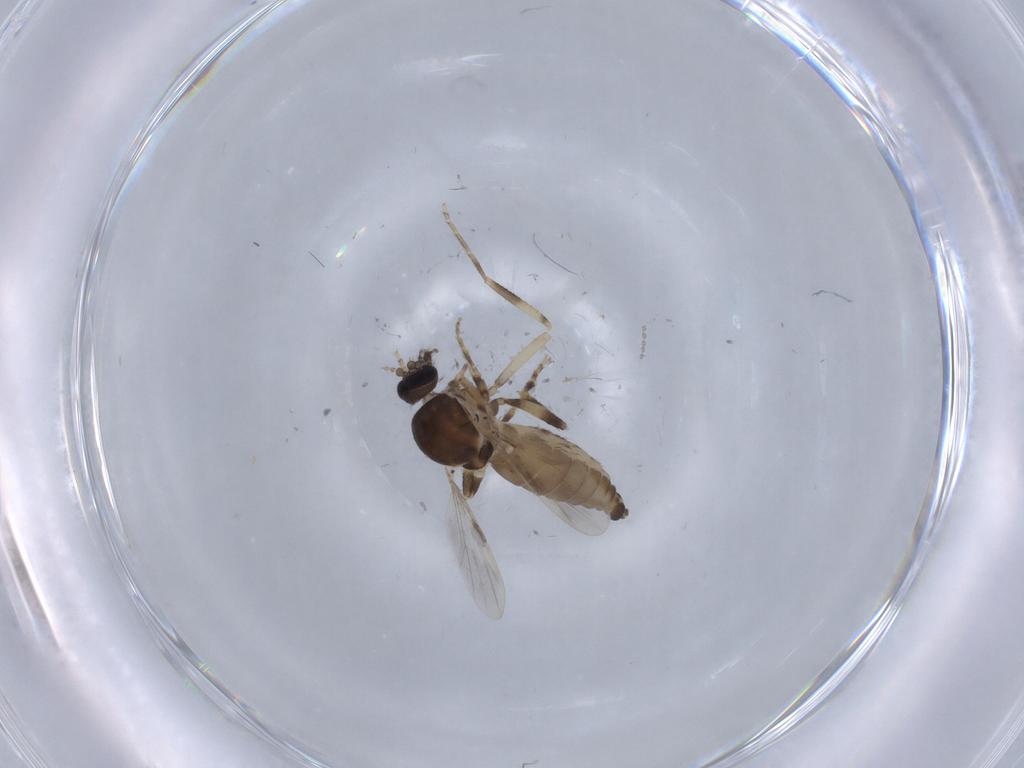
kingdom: Animalia
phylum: Arthropoda
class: Insecta
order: Diptera
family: Ceratopogonidae
